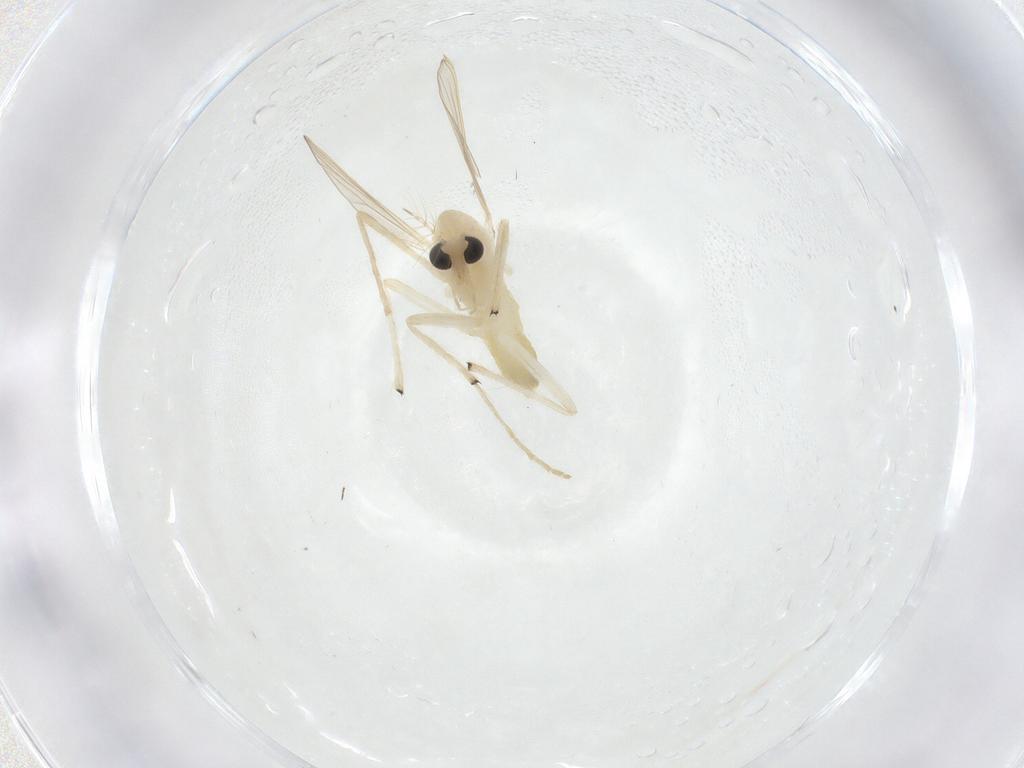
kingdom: Animalia
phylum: Arthropoda
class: Insecta
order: Diptera
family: Chironomidae
